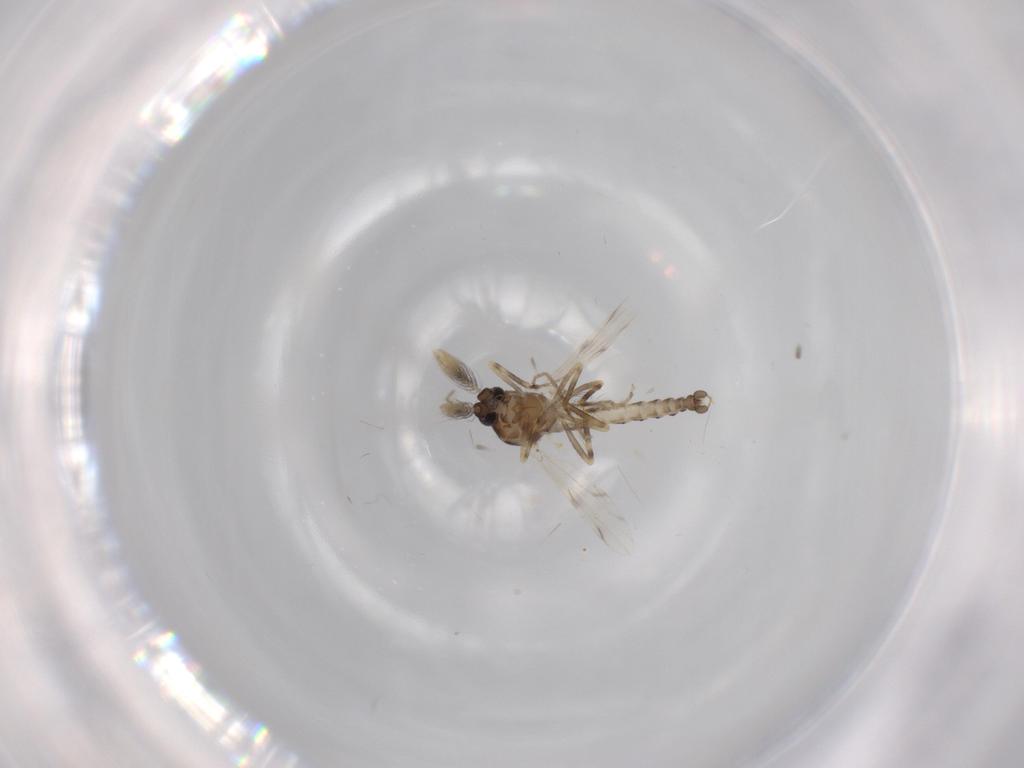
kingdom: Animalia
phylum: Arthropoda
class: Insecta
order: Diptera
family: Ceratopogonidae
